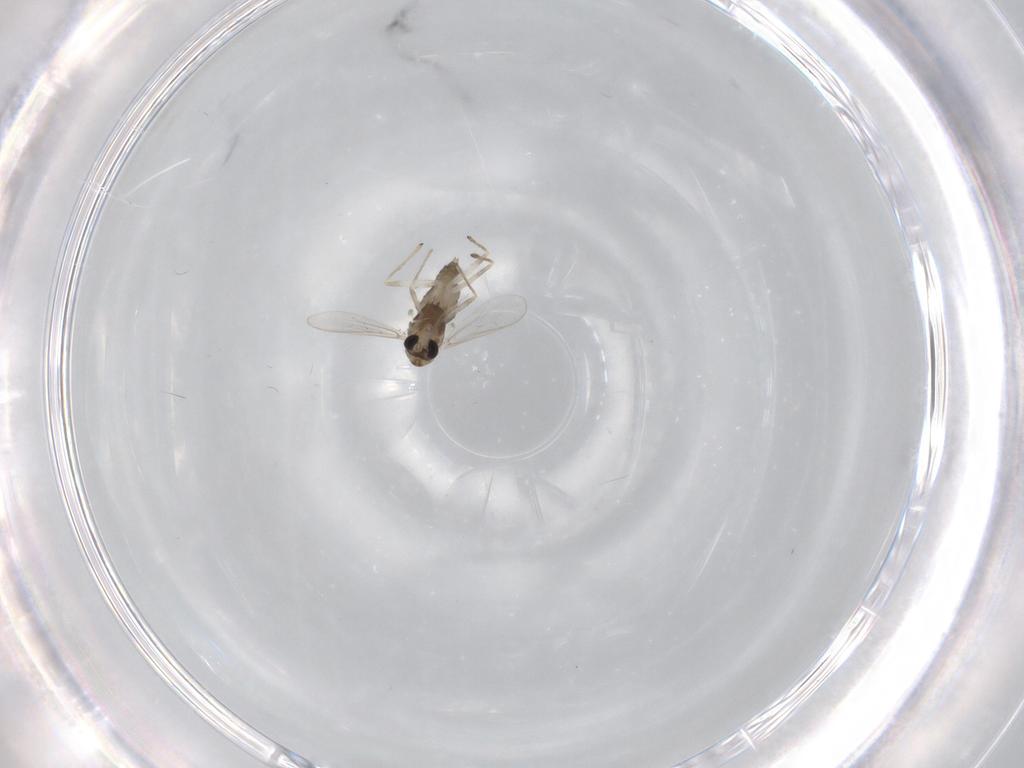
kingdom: Animalia
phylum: Arthropoda
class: Insecta
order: Diptera
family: Chironomidae
